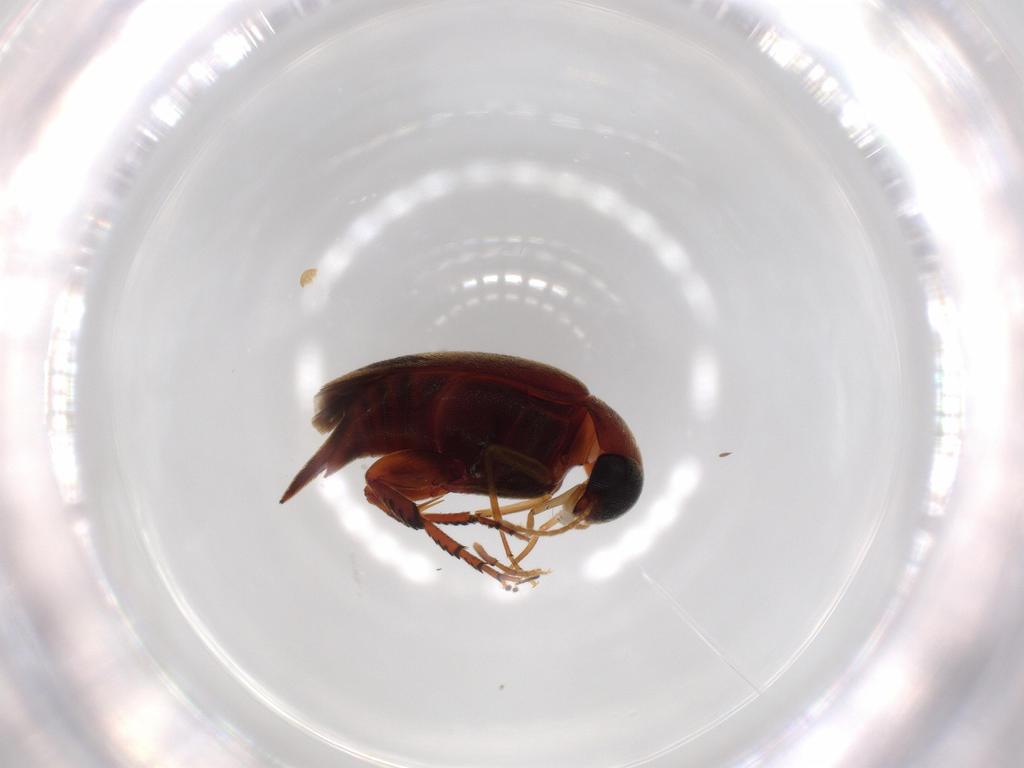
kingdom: Animalia
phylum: Arthropoda
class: Insecta
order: Coleoptera
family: Mordellidae
